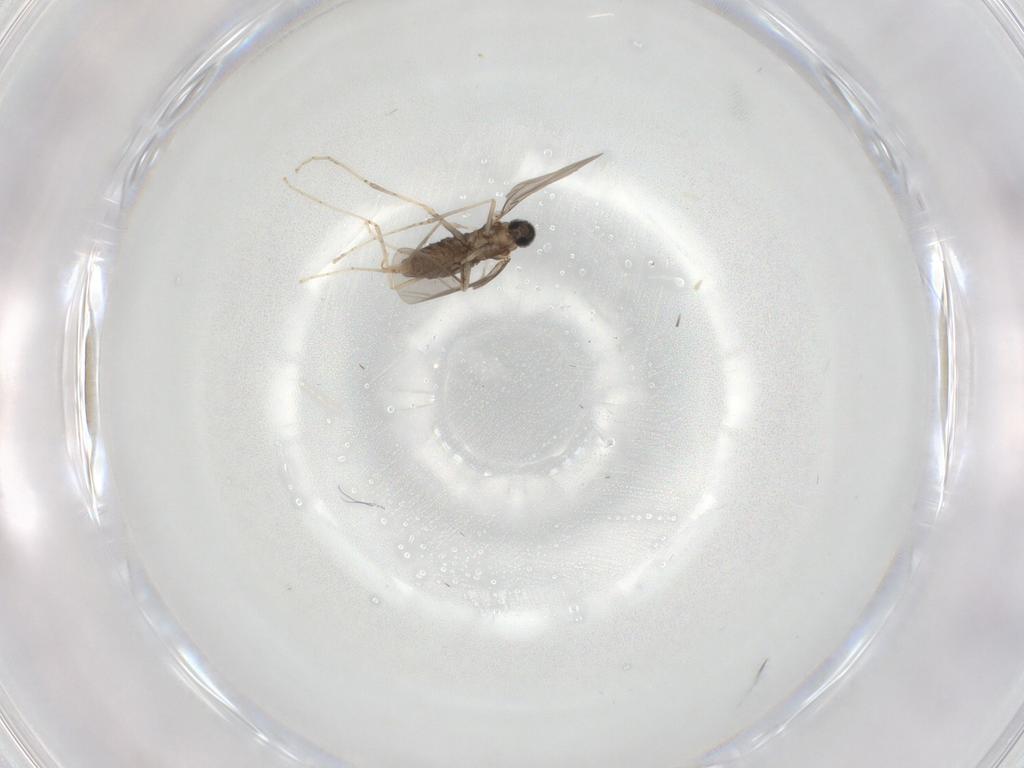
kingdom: Animalia
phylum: Arthropoda
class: Insecta
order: Diptera
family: Cecidomyiidae
